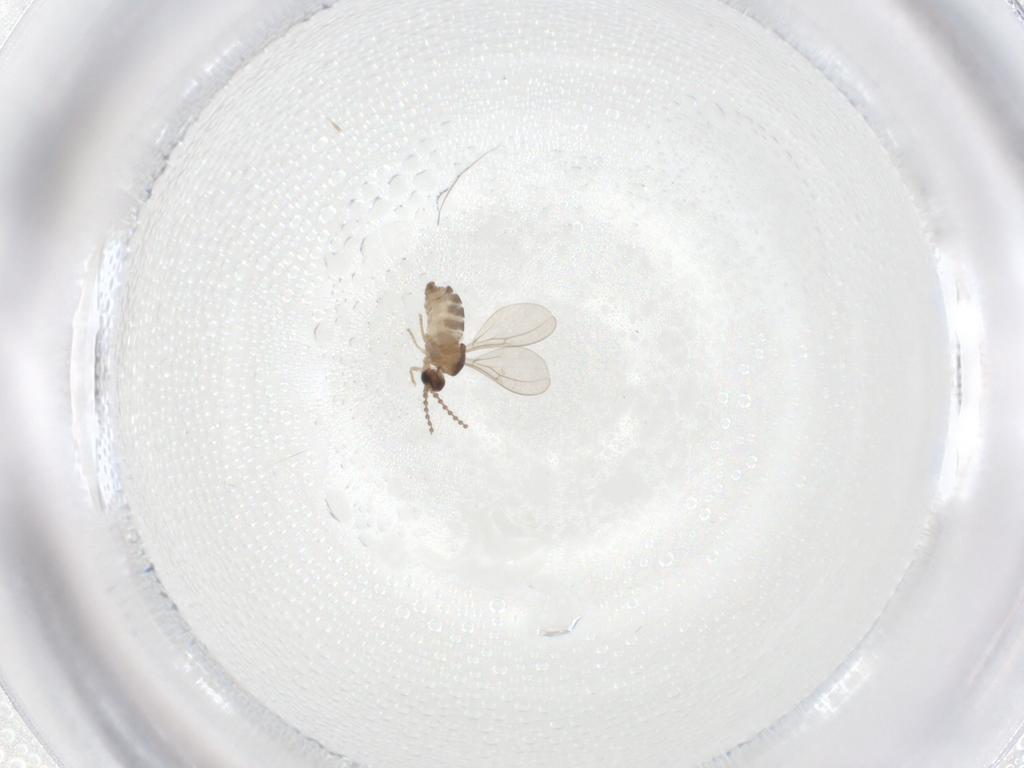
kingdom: Animalia
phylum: Arthropoda
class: Insecta
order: Diptera
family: Cecidomyiidae
